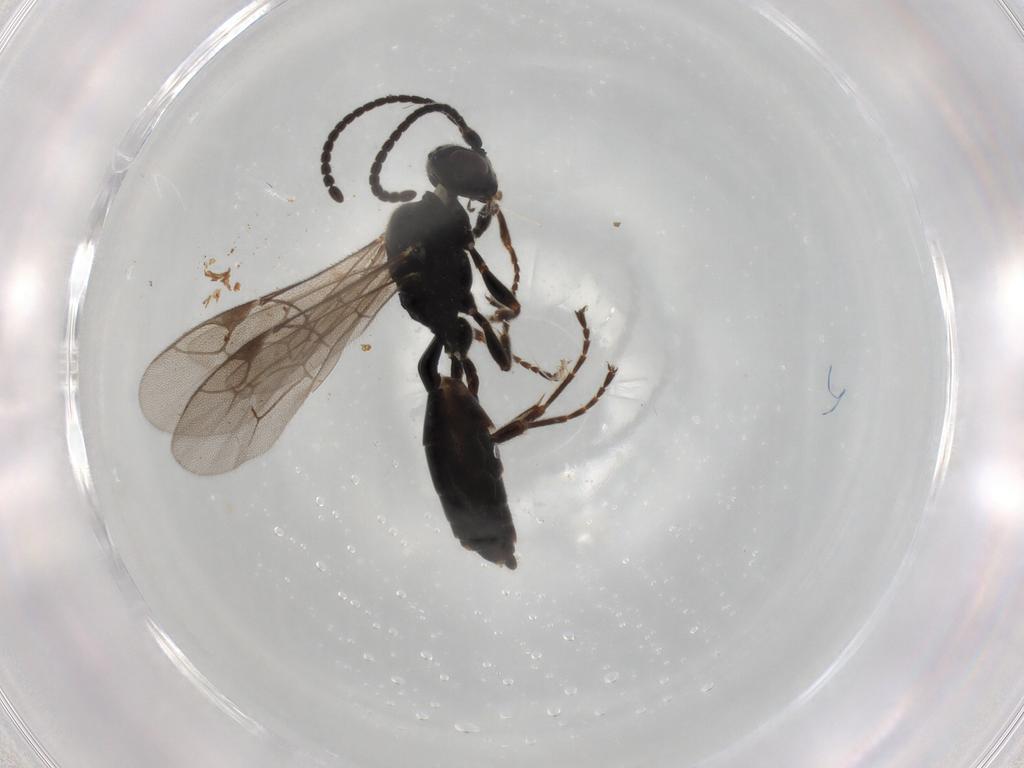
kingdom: Animalia
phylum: Arthropoda
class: Insecta
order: Hymenoptera
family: Ichneumonidae
